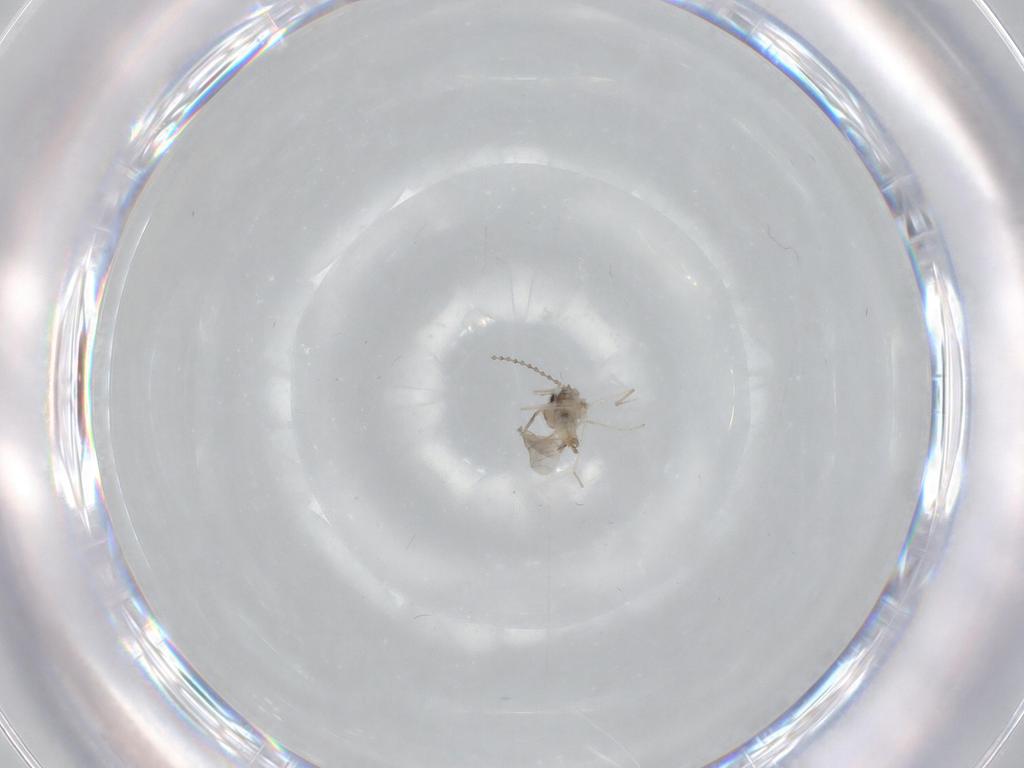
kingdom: Animalia
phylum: Arthropoda
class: Insecta
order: Diptera
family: Cecidomyiidae
